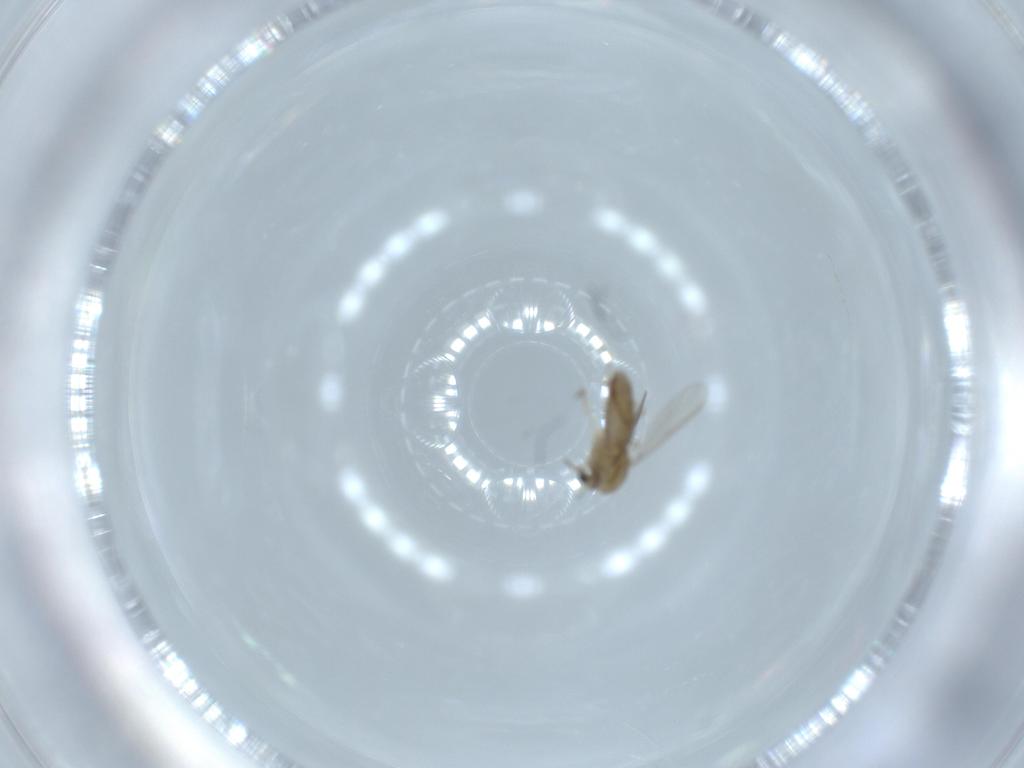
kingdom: Animalia
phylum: Arthropoda
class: Insecta
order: Diptera
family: Chironomidae
